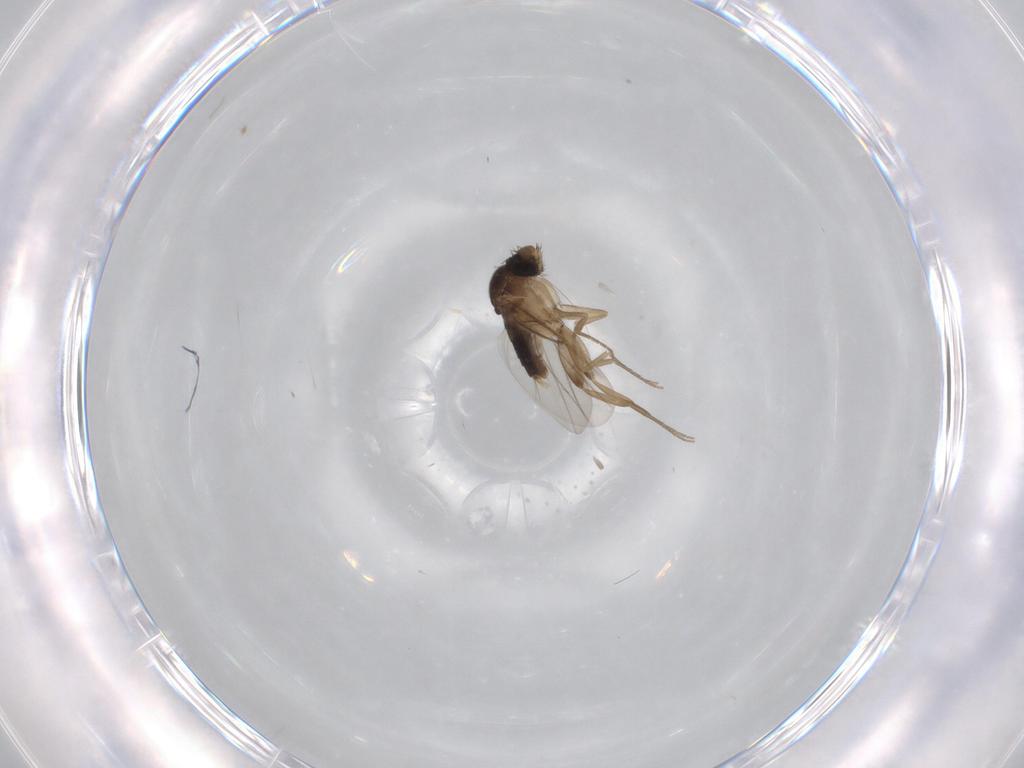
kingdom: Animalia
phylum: Arthropoda
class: Insecta
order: Diptera
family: Phoridae
